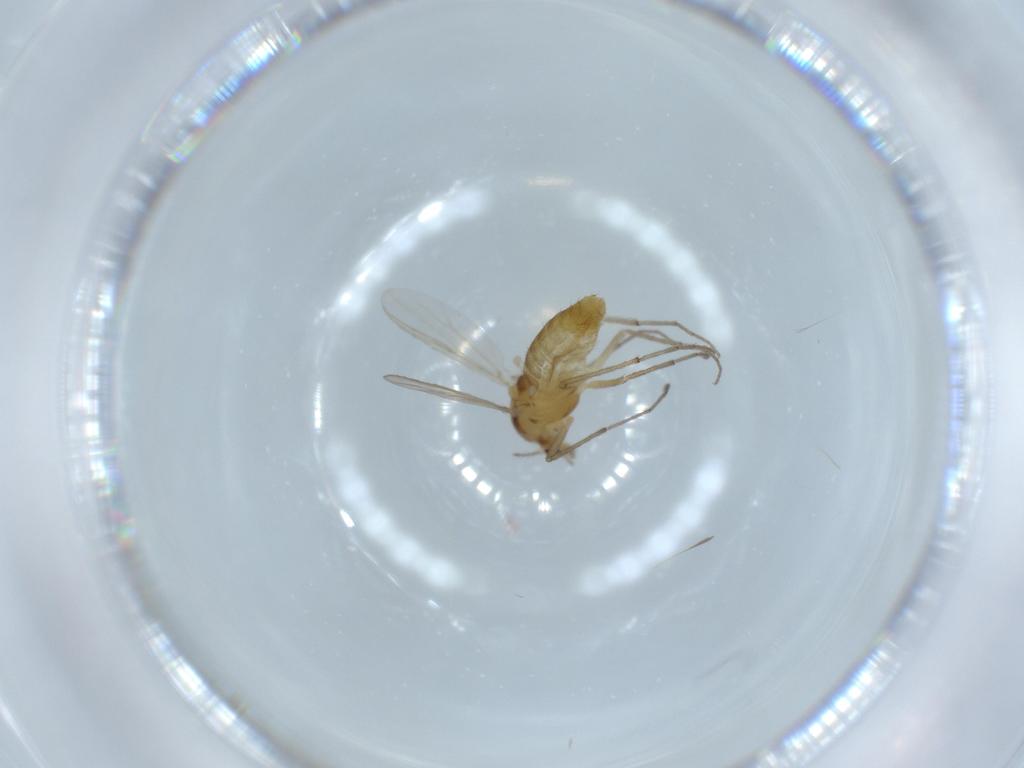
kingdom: Animalia
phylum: Arthropoda
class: Insecta
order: Diptera
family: Chironomidae
